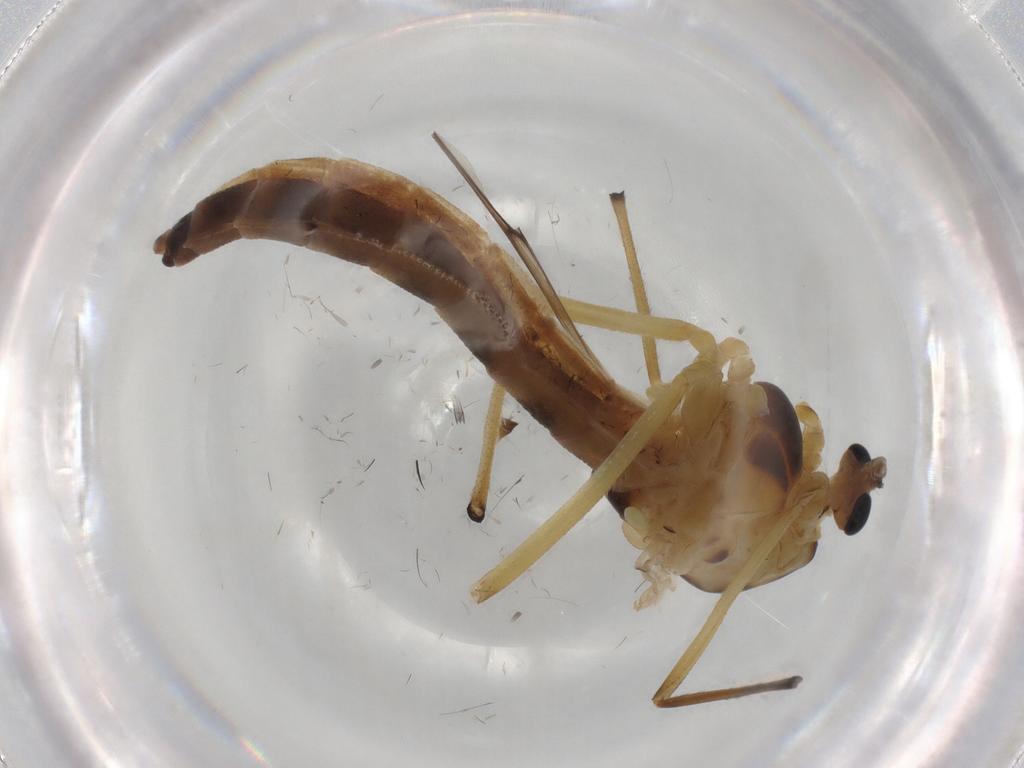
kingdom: Animalia
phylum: Arthropoda
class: Insecta
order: Diptera
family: Chironomidae
